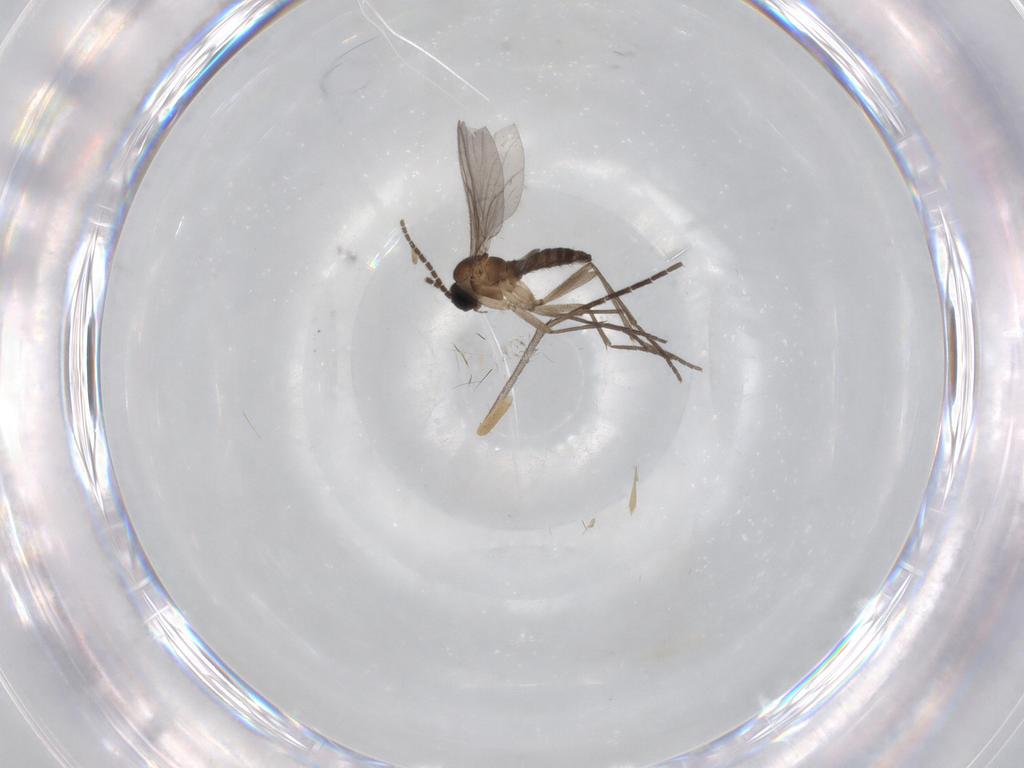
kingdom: Animalia
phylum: Arthropoda
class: Insecta
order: Diptera
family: Sciaridae
